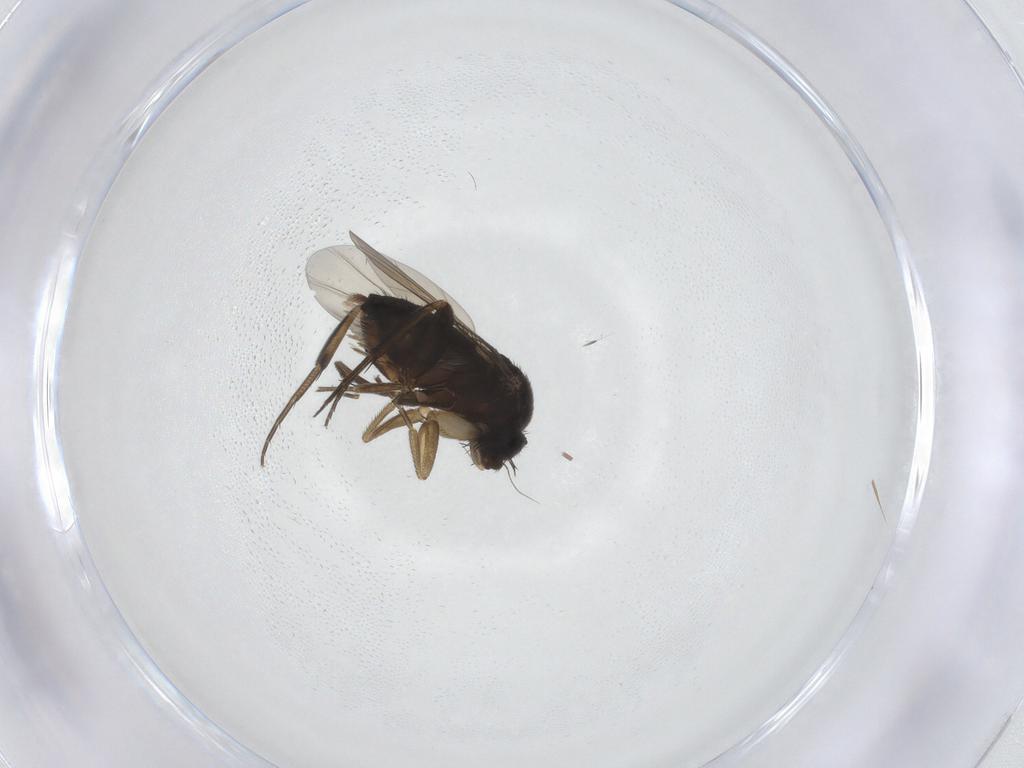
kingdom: Animalia
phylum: Arthropoda
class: Insecta
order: Diptera
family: Phoridae
